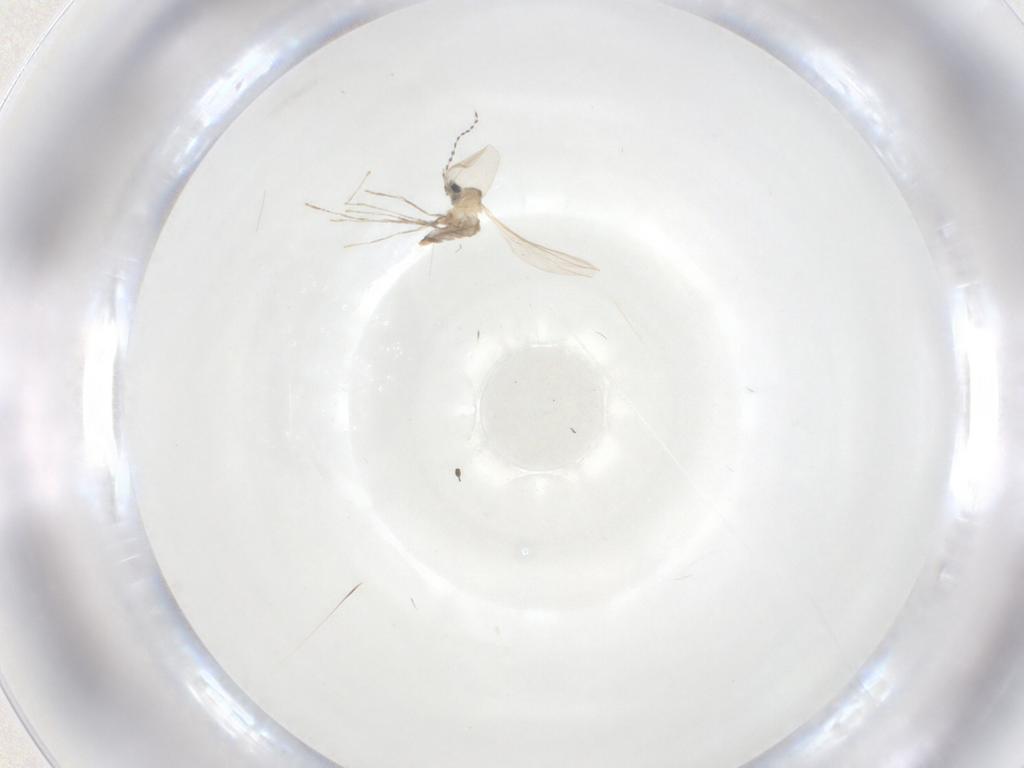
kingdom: Animalia
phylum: Arthropoda
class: Insecta
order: Diptera
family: Cecidomyiidae
